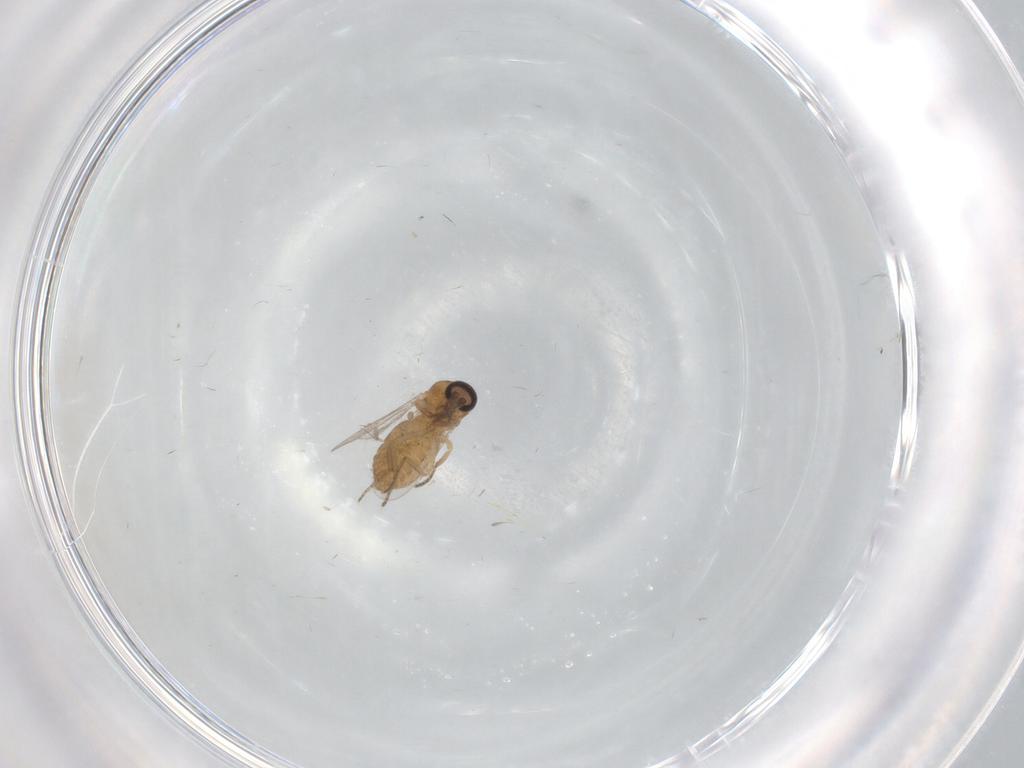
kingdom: Animalia
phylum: Arthropoda
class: Insecta
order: Diptera
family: Ceratopogonidae
